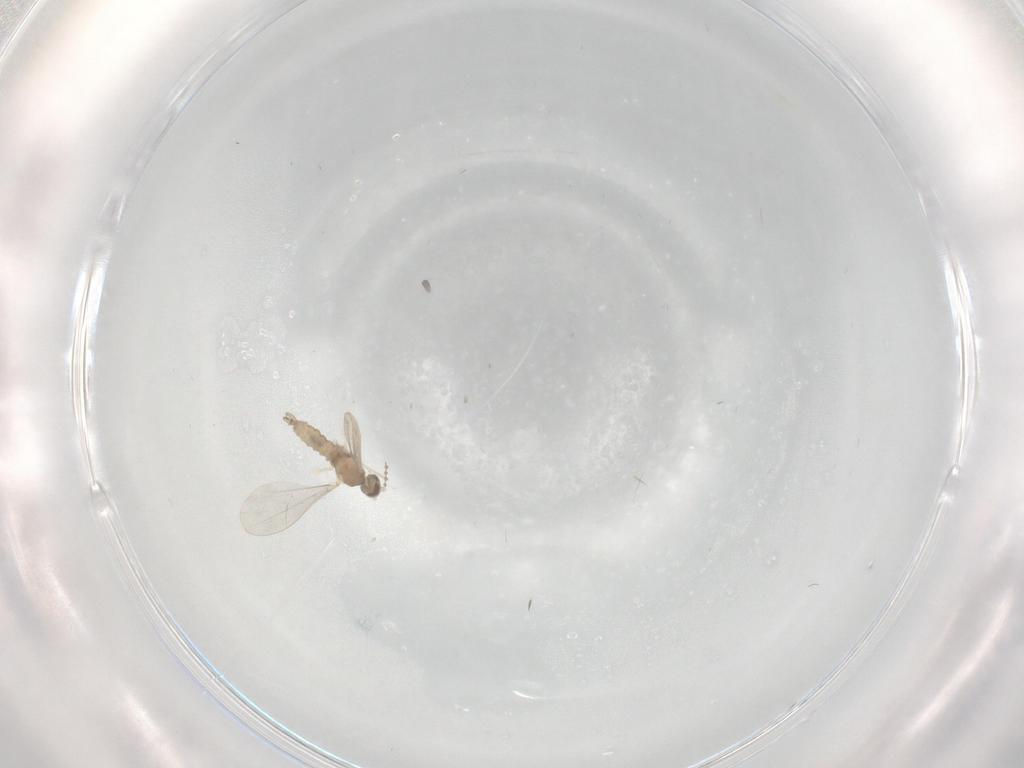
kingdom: Animalia
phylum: Arthropoda
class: Insecta
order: Diptera
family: Cecidomyiidae
